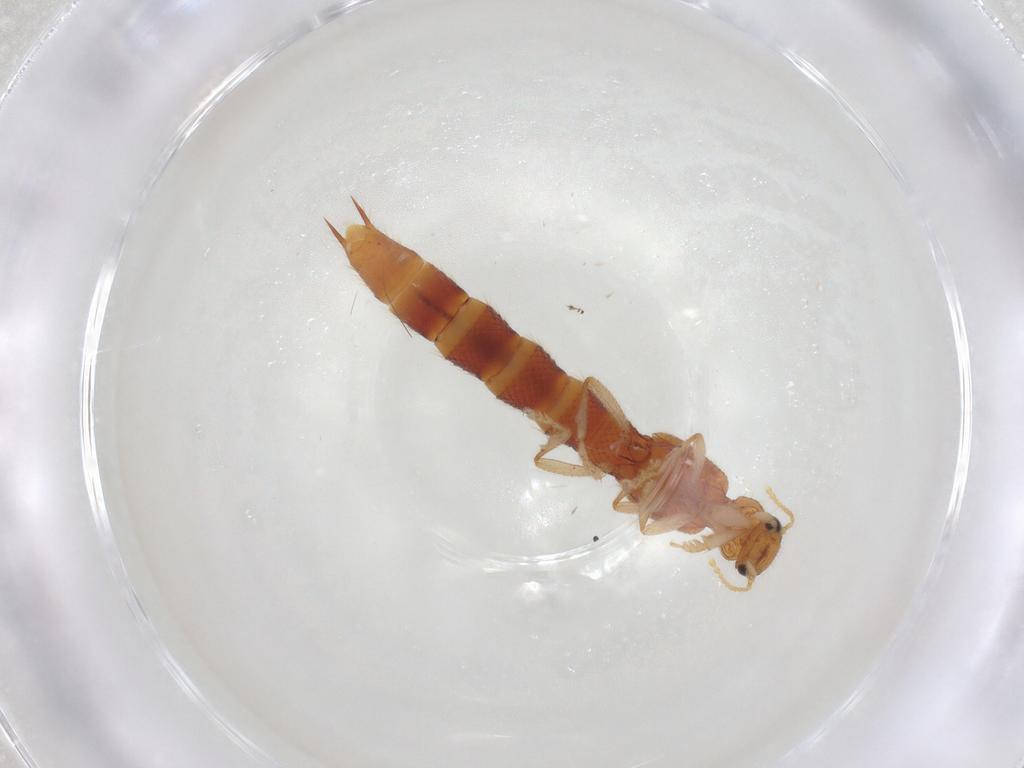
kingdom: Animalia
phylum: Arthropoda
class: Insecta
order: Coleoptera
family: Staphylinidae
